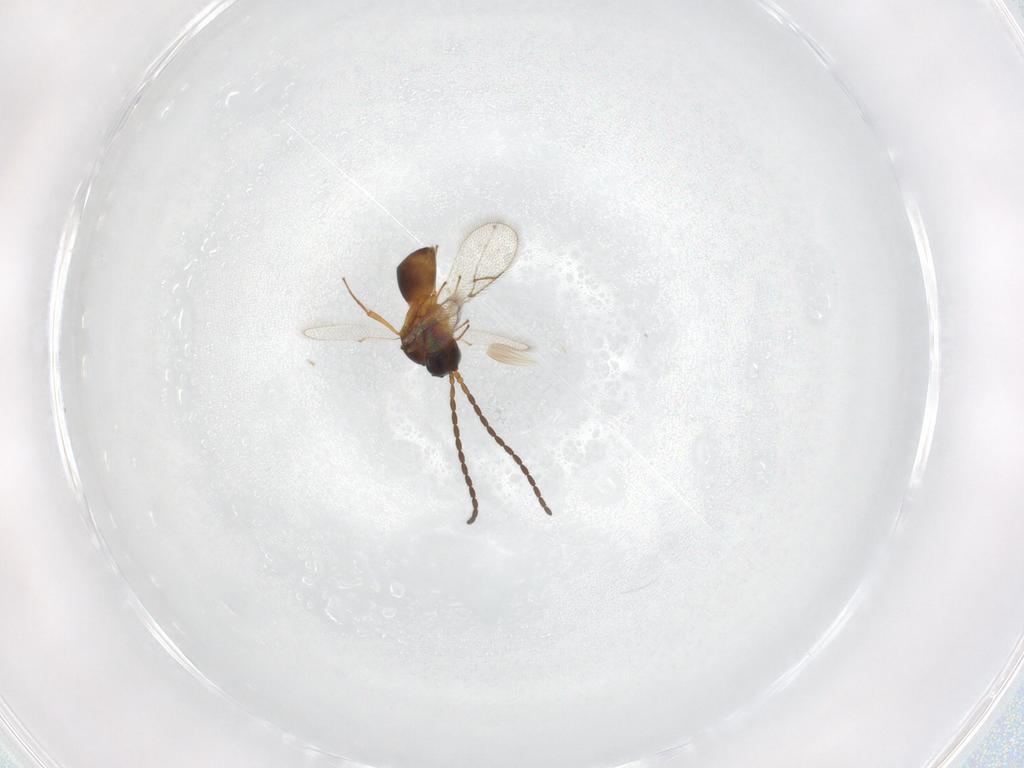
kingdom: Animalia
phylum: Arthropoda
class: Insecta
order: Hymenoptera
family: Figitidae
